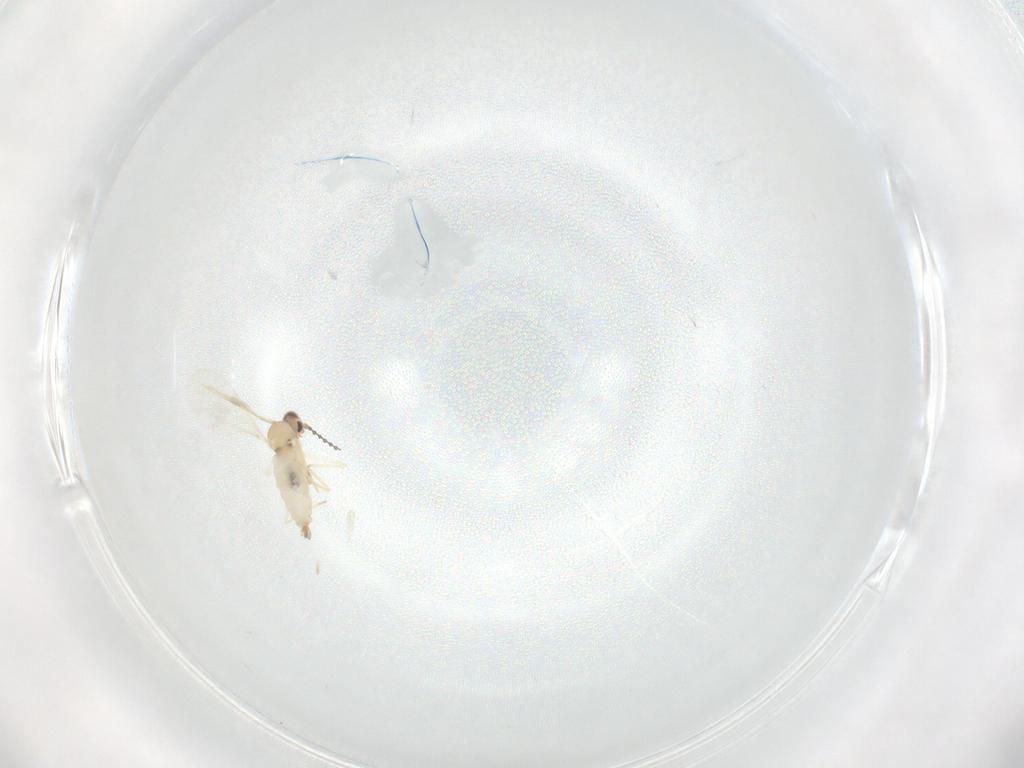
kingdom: Animalia
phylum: Arthropoda
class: Insecta
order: Diptera
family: Cecidomyiidae
